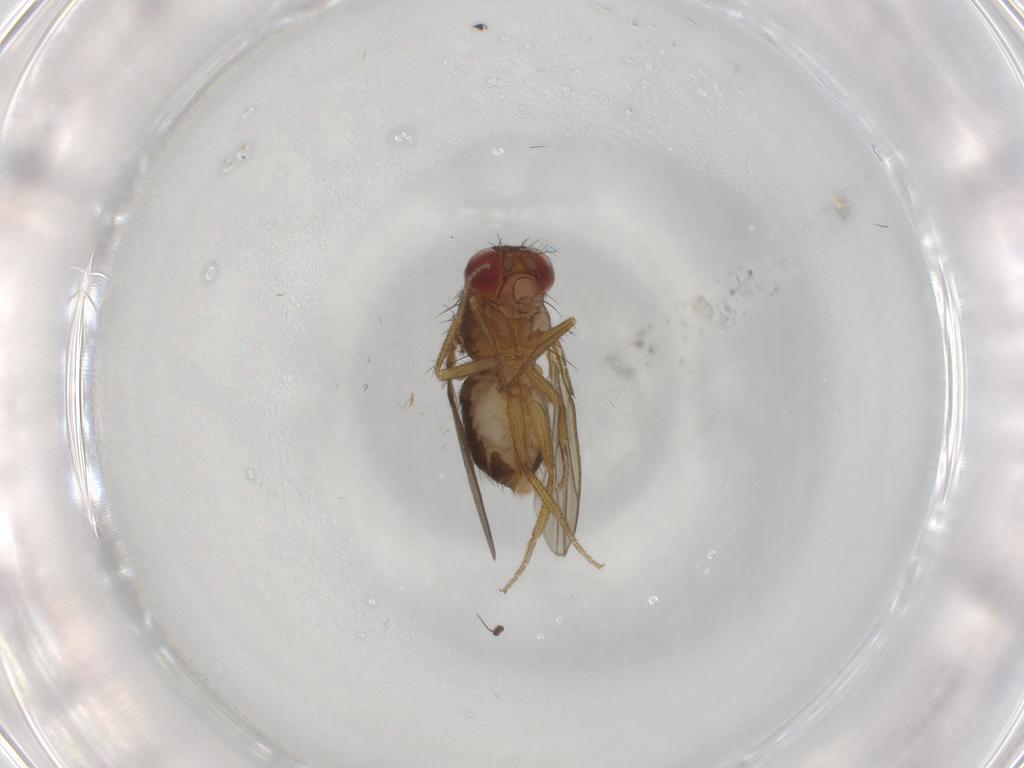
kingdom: Animalia
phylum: Arthropoda
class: Insecta
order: Diptera
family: Drosophilidae
